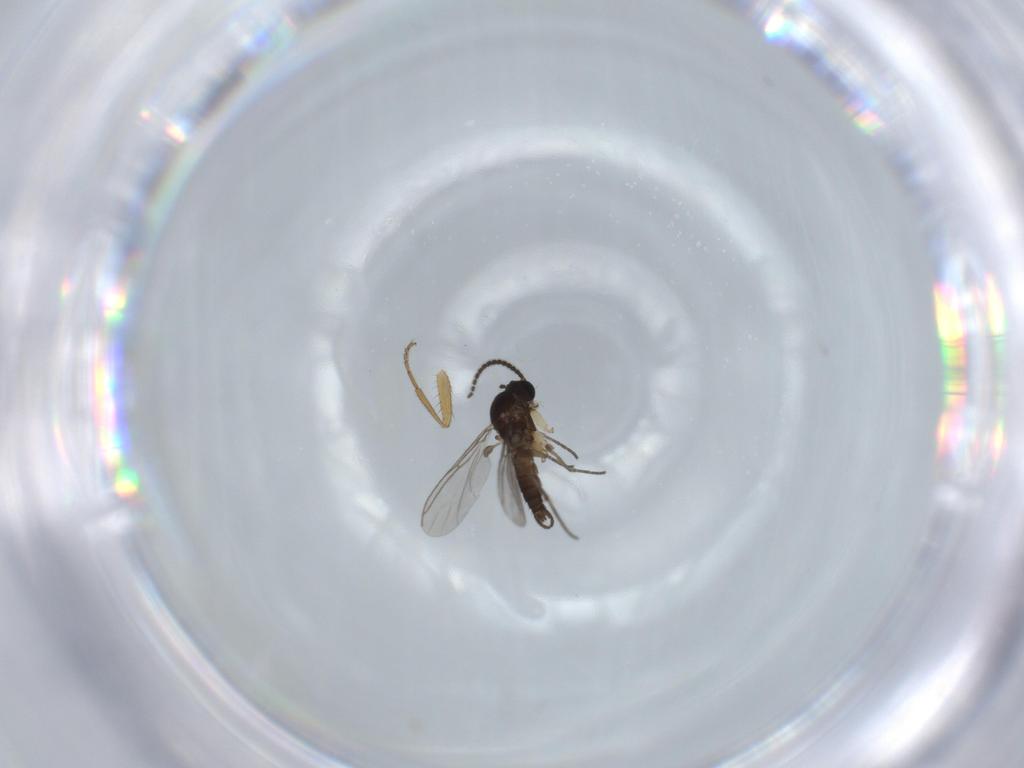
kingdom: Animalia
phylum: Arthropoda
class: Insecta
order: Diptera
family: Sciaridae
